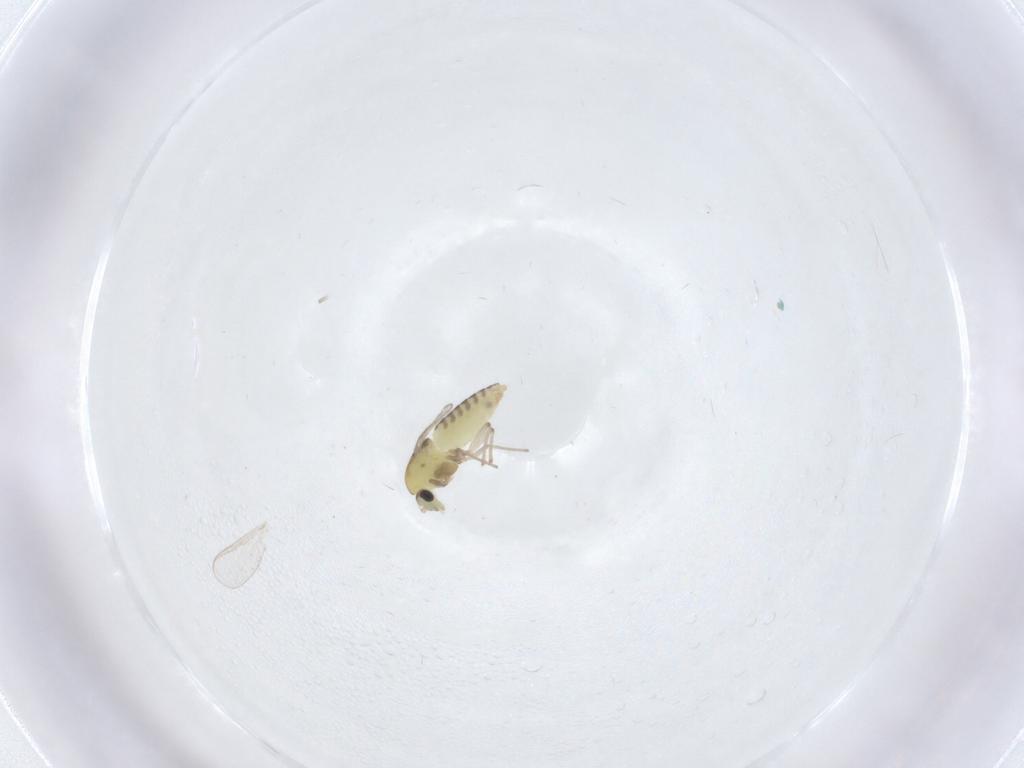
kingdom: Animalia
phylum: Arthropoda
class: Insecta
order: Diptera
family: Chironomidae
